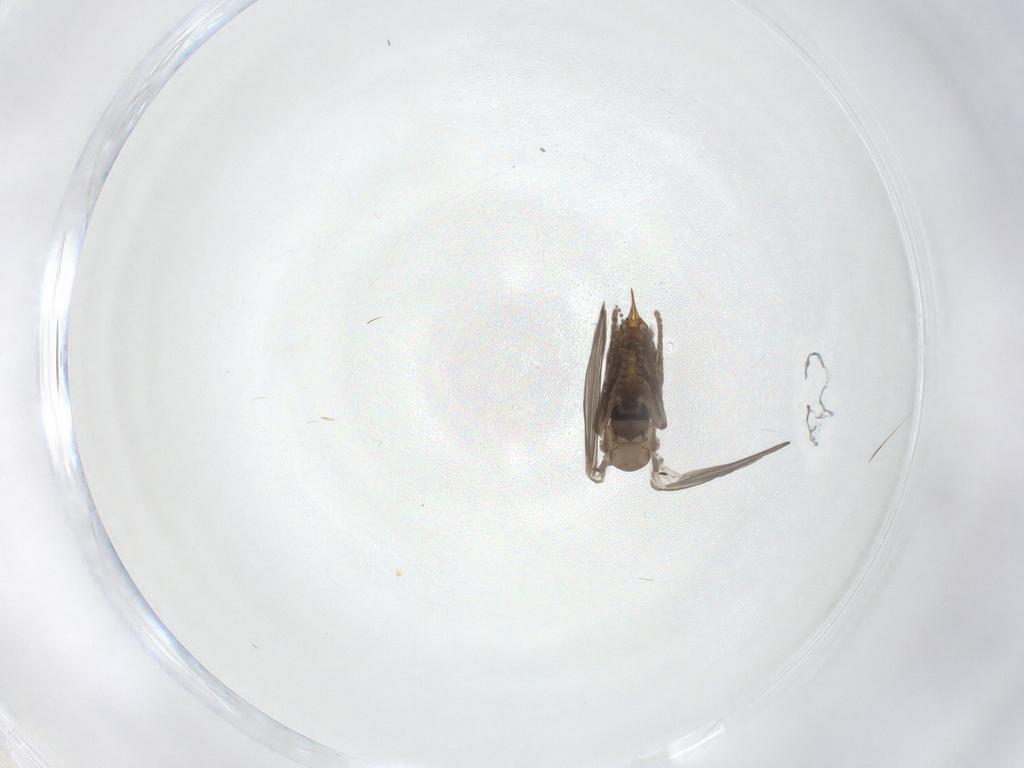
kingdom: Animalia
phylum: Arthropoda
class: Insecta
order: Diptera
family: Psychodidae
